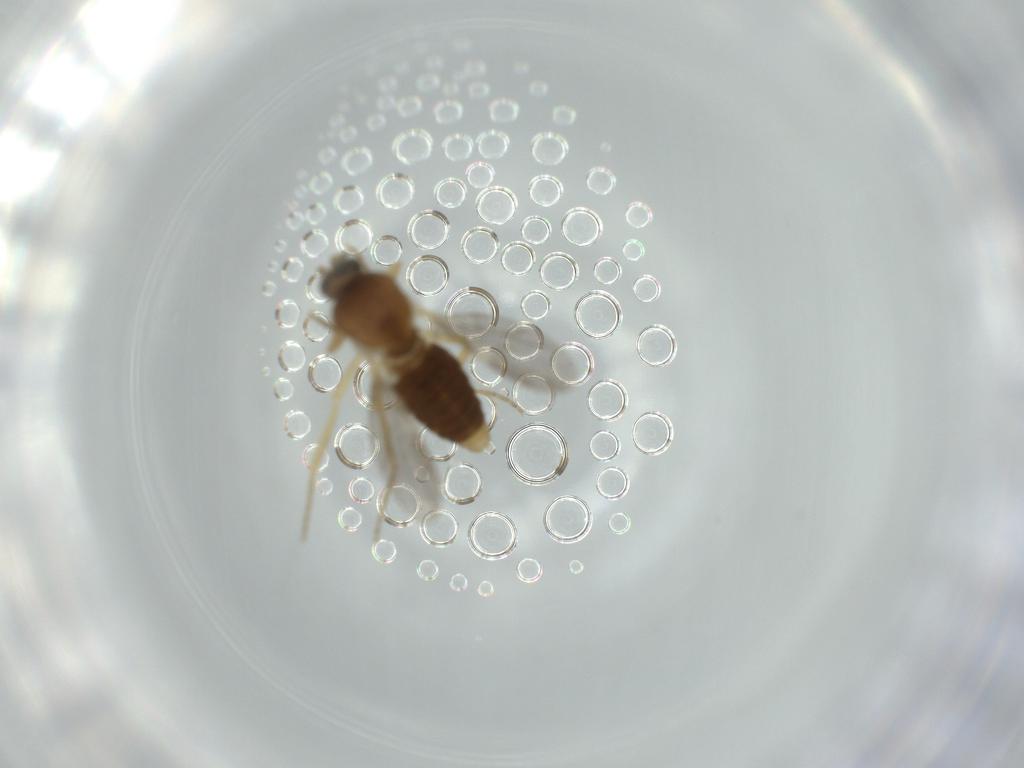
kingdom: Animalia
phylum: Arthropoda
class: Insecta
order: Diptera
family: Ceratopogonidae
